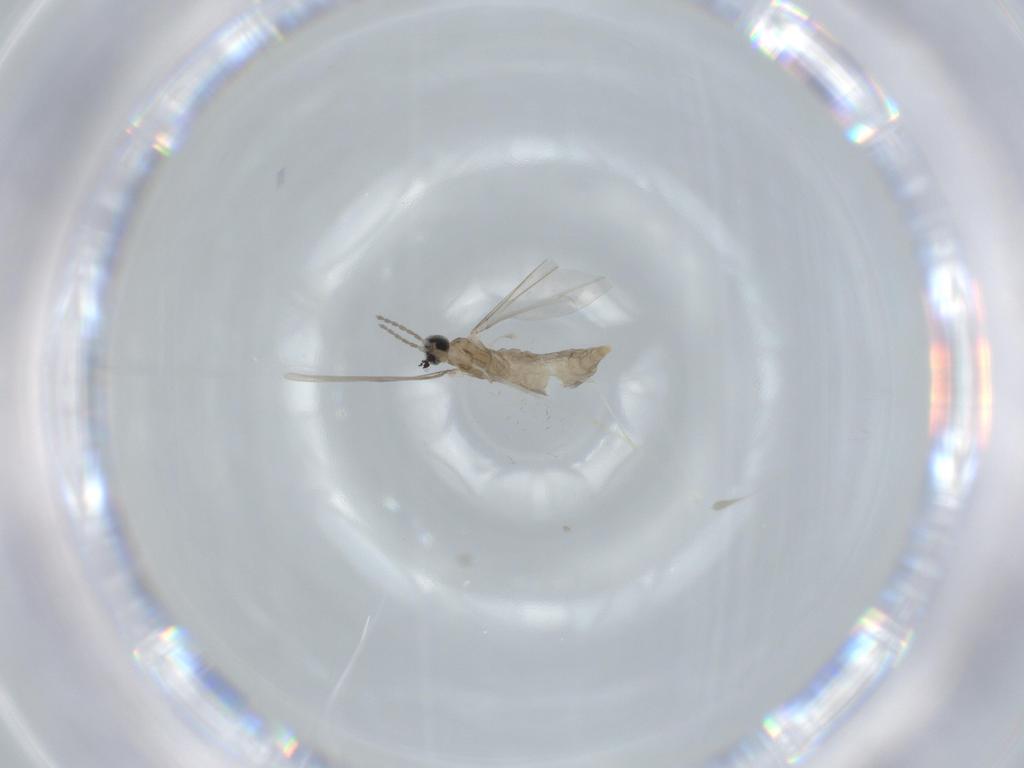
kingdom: Animalia
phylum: Arthropoda
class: Insecta
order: Diptera
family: Cecidomyiidae
